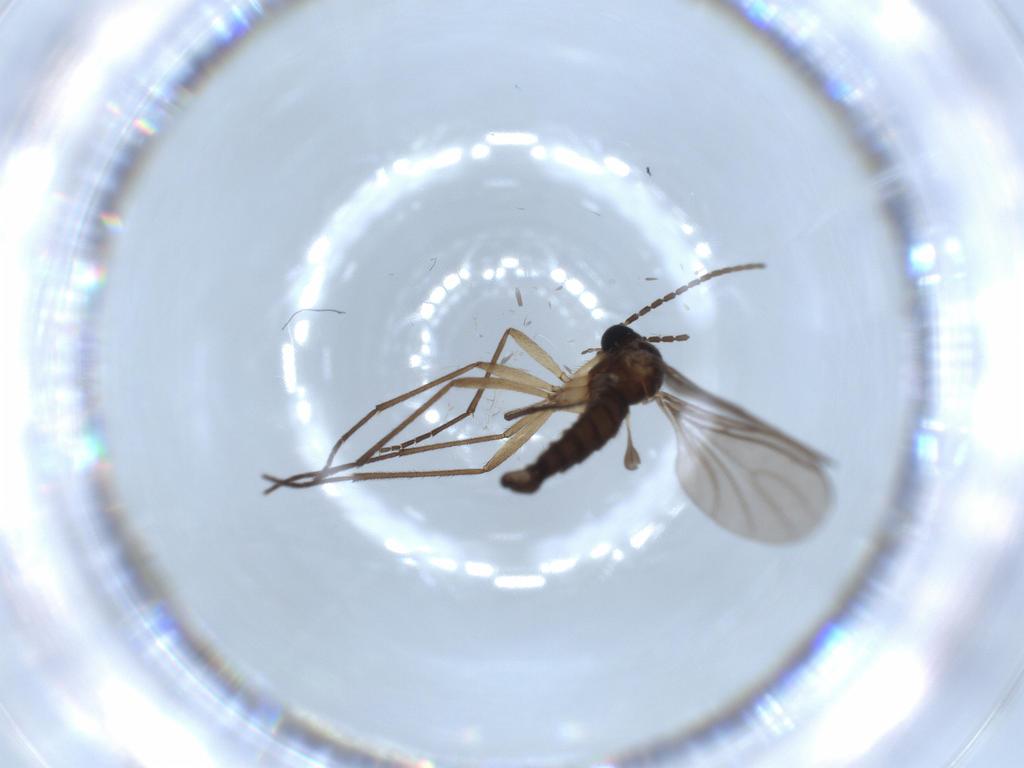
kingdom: Animalia
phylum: Arthropoda
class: Insecta
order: Diptera
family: Sciaridae
